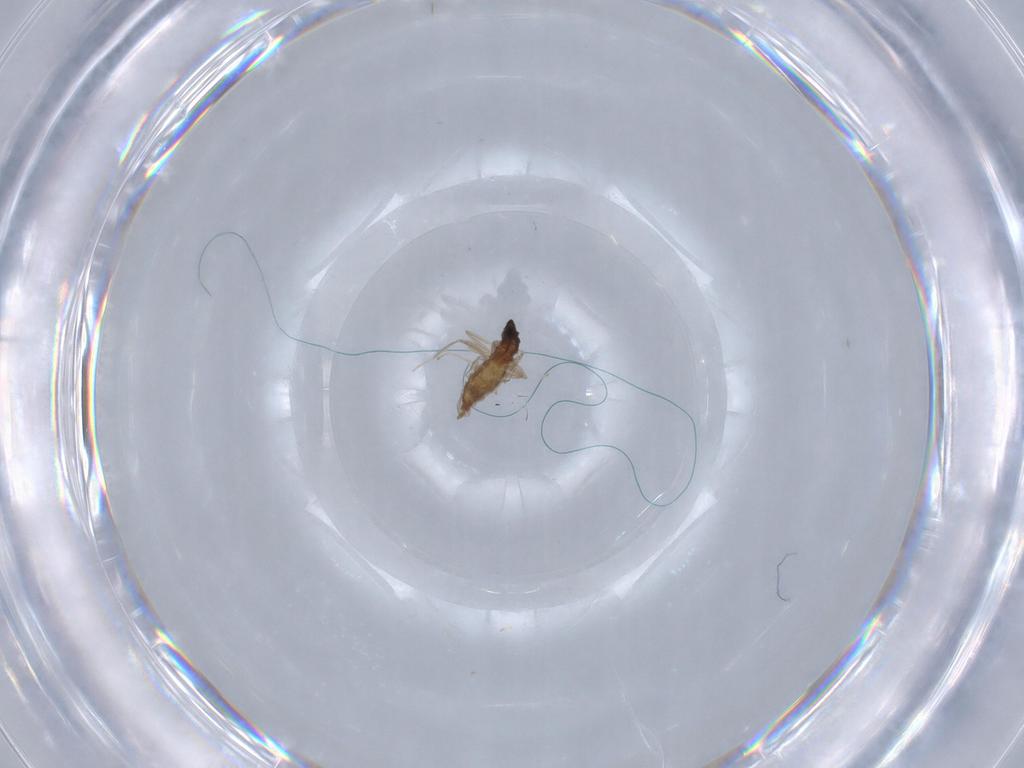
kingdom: Animalia
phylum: Arthropoda
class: Insecta
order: Diptera
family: Cecidomyiidae
